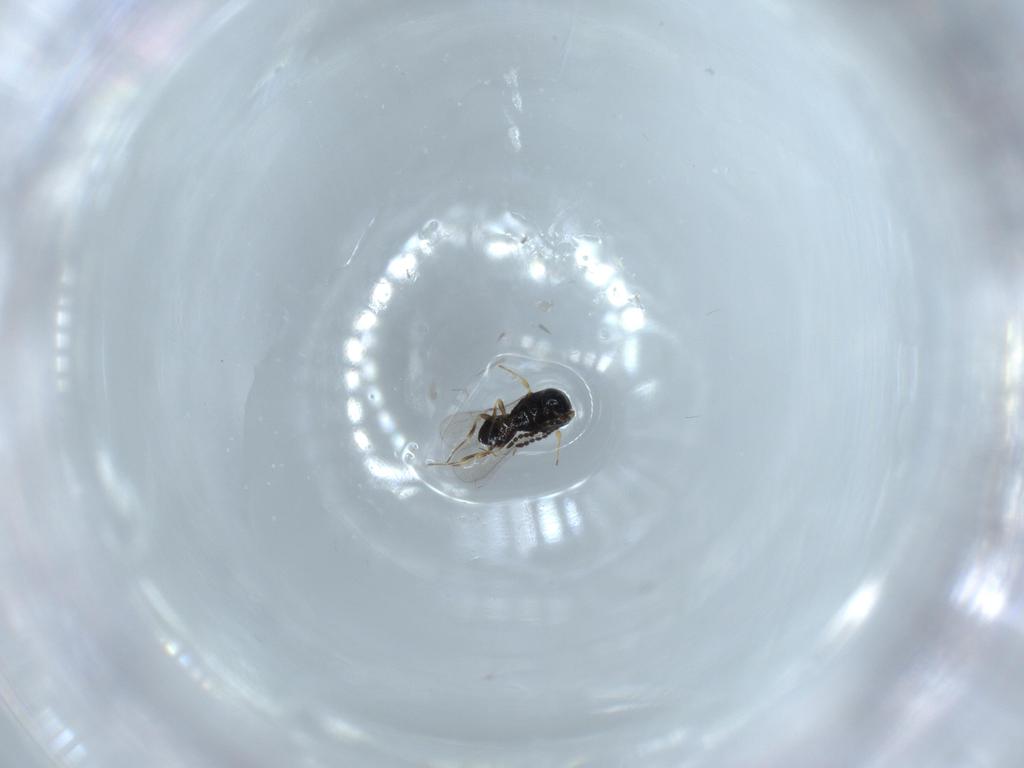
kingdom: Animalia
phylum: Arthropoda
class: Insecta
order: Hymenoptera
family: Scelionidae
